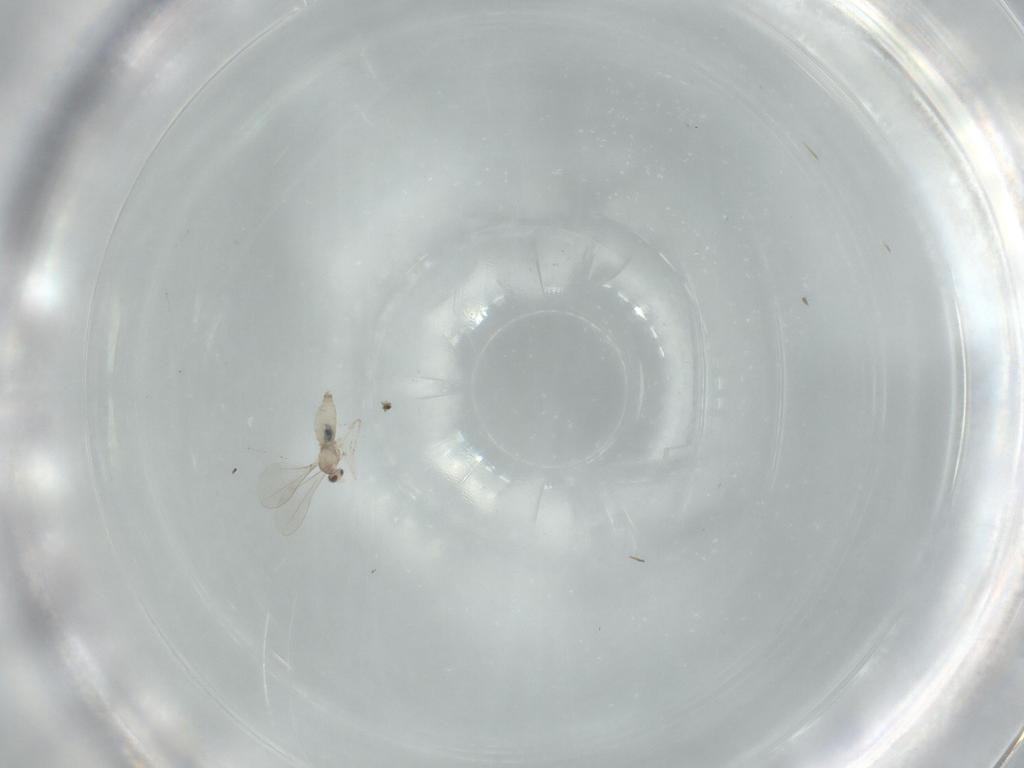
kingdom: Animalia
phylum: Arthropoda
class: Insecta
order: Diptera
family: Cecidomyiidae
